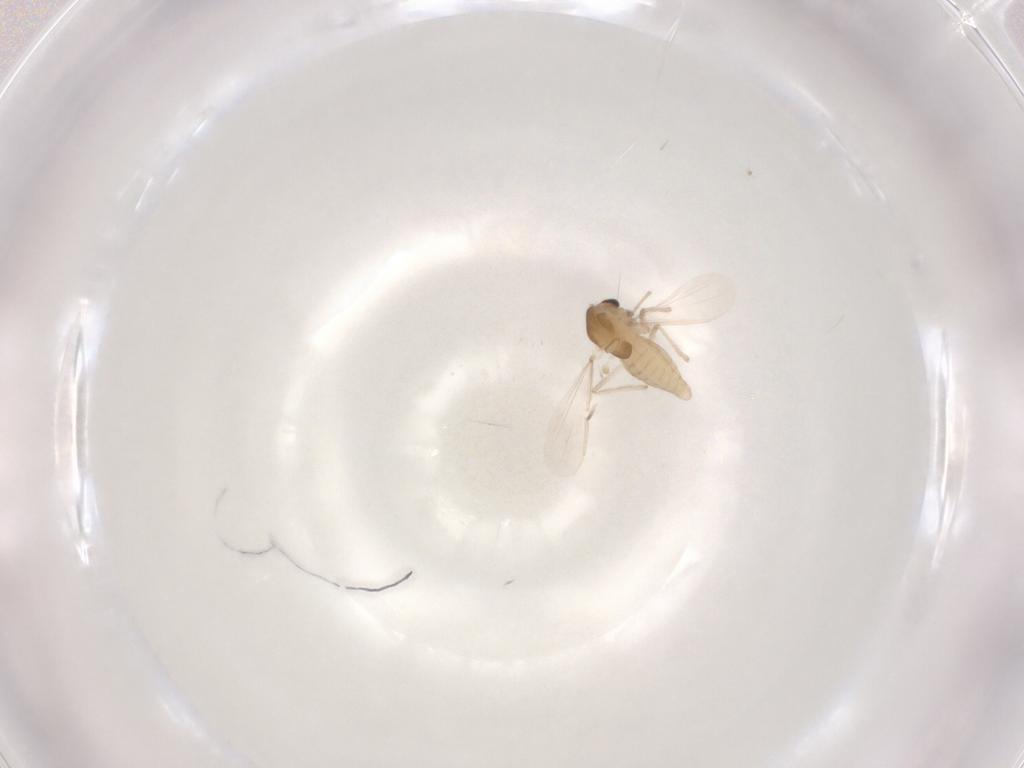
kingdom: Animalia
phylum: Arthropoda
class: Insecta
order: Diptera
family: Chironomidae
